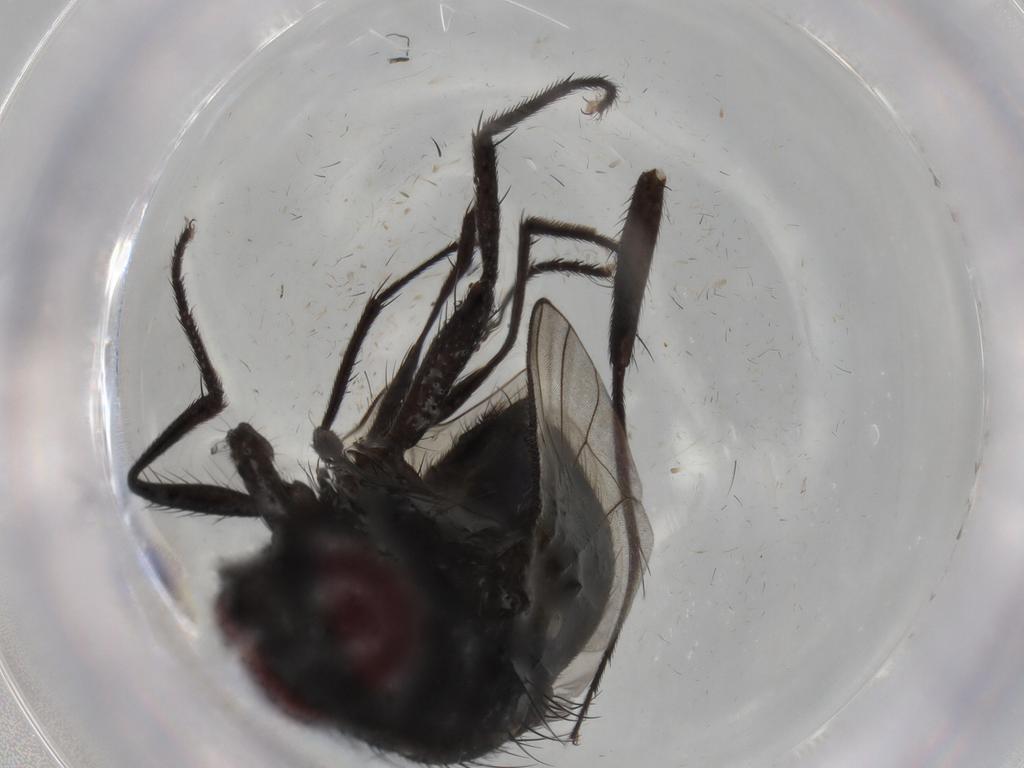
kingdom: Animalia
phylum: Arthropoda
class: Insecta
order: Diptera
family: Muscidae
